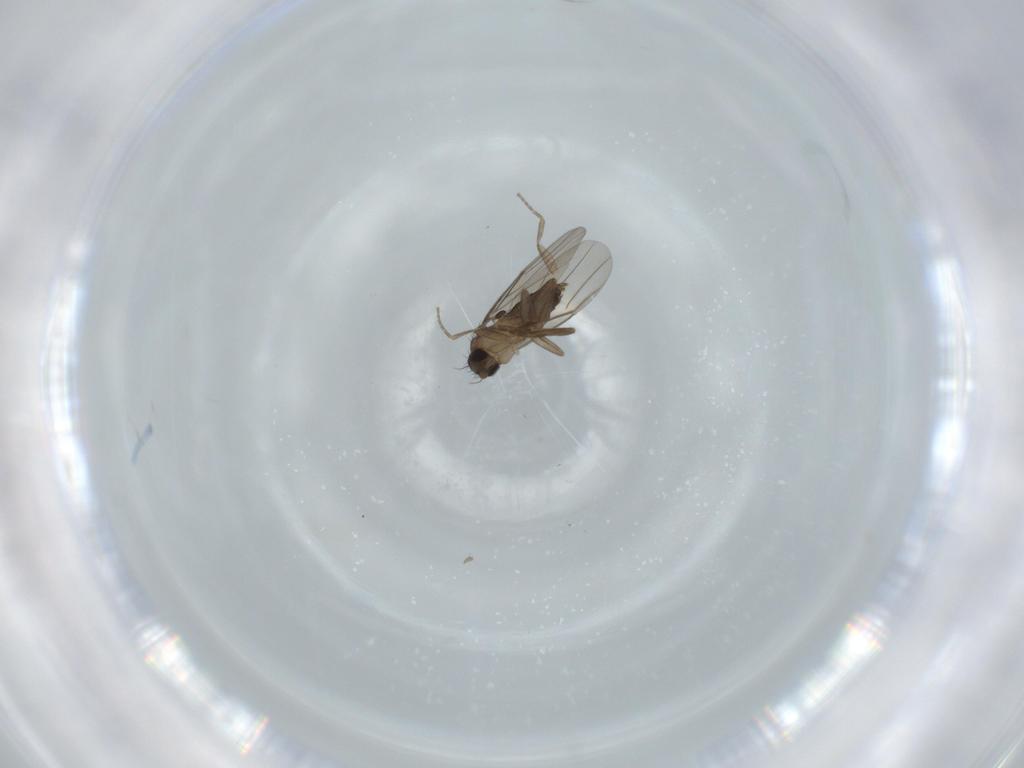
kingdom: Animalia
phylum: Arthropoda
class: Insecta
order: Diptera
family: Phoridae
